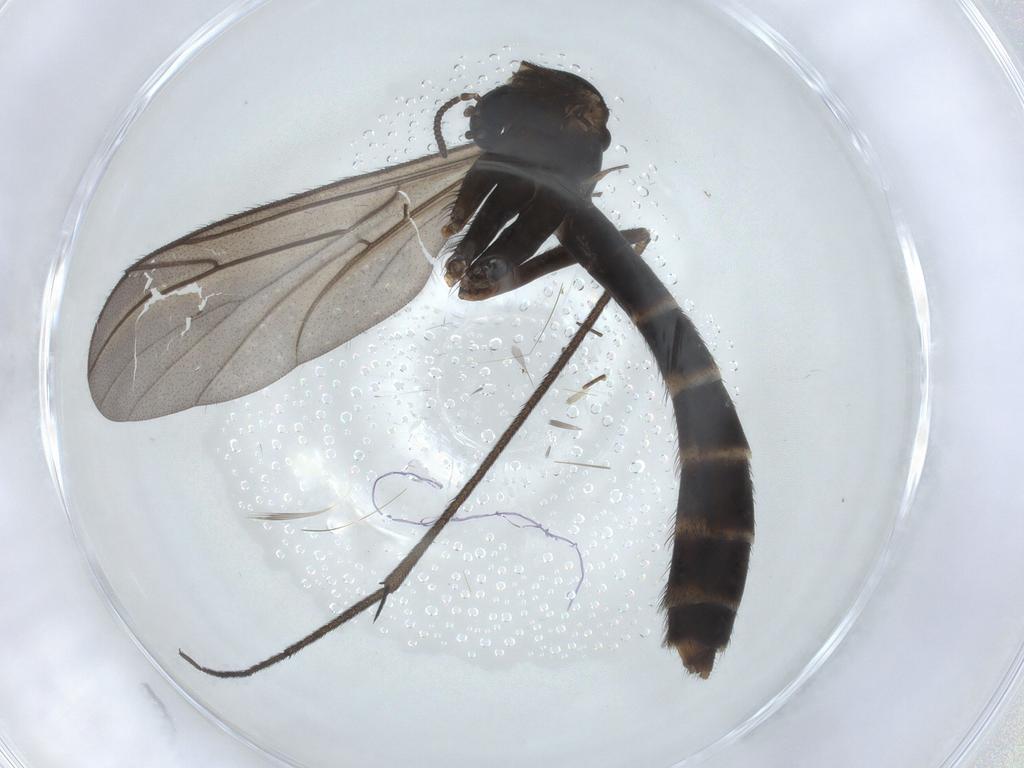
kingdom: Animalia
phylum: Arthropoda
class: Insecta
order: Diptera
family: Ditomyiidae
